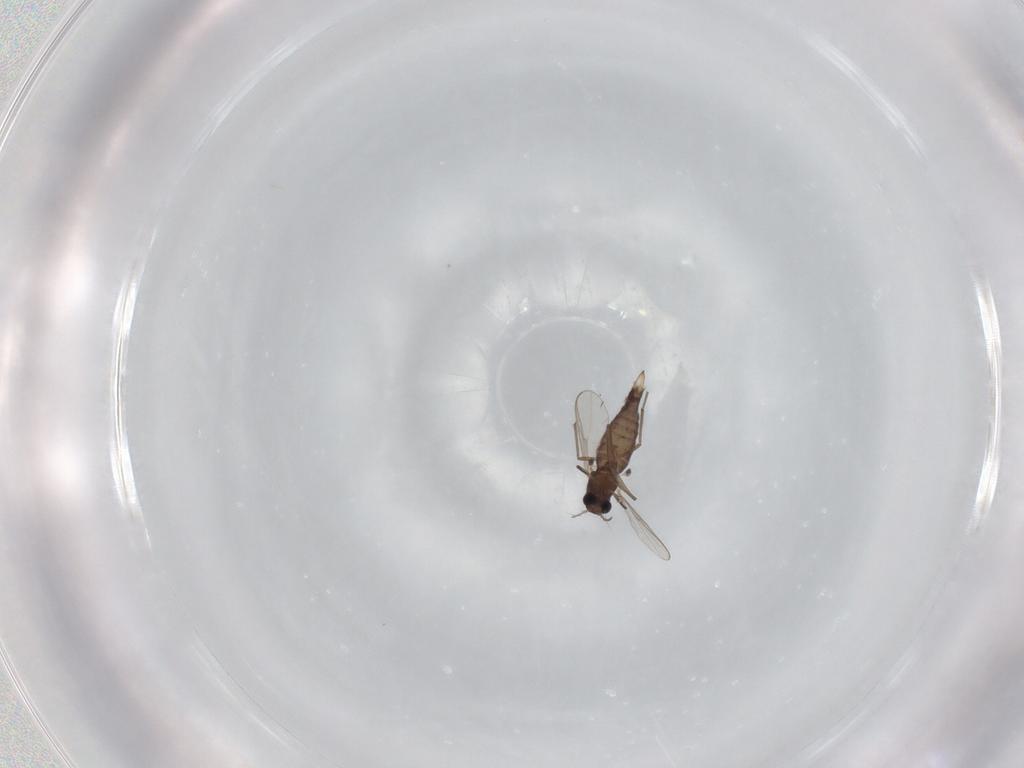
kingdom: Animalia
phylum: Arthropoda
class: Insecta
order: Diptera
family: Chironomidae
